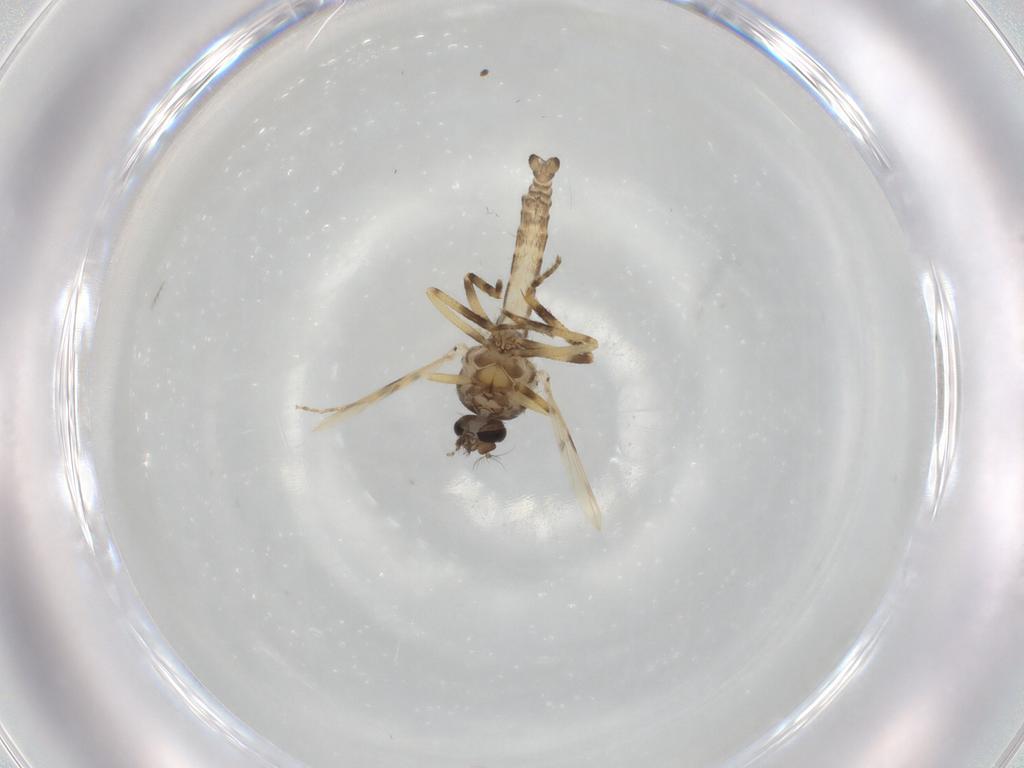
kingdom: Animalia
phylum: Arthropoda
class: Insecta
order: Diptera
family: Ceratopogonidae
